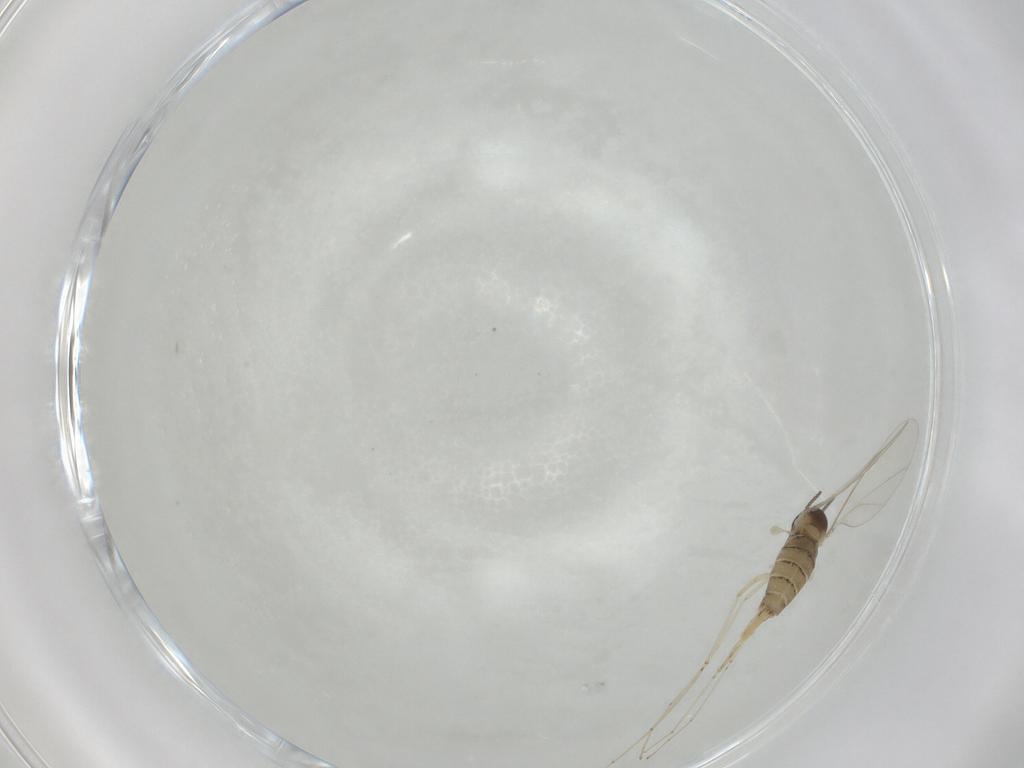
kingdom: Animalia
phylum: Arthropoda
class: Insecta
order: Diptera
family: Cecidomyiidae
